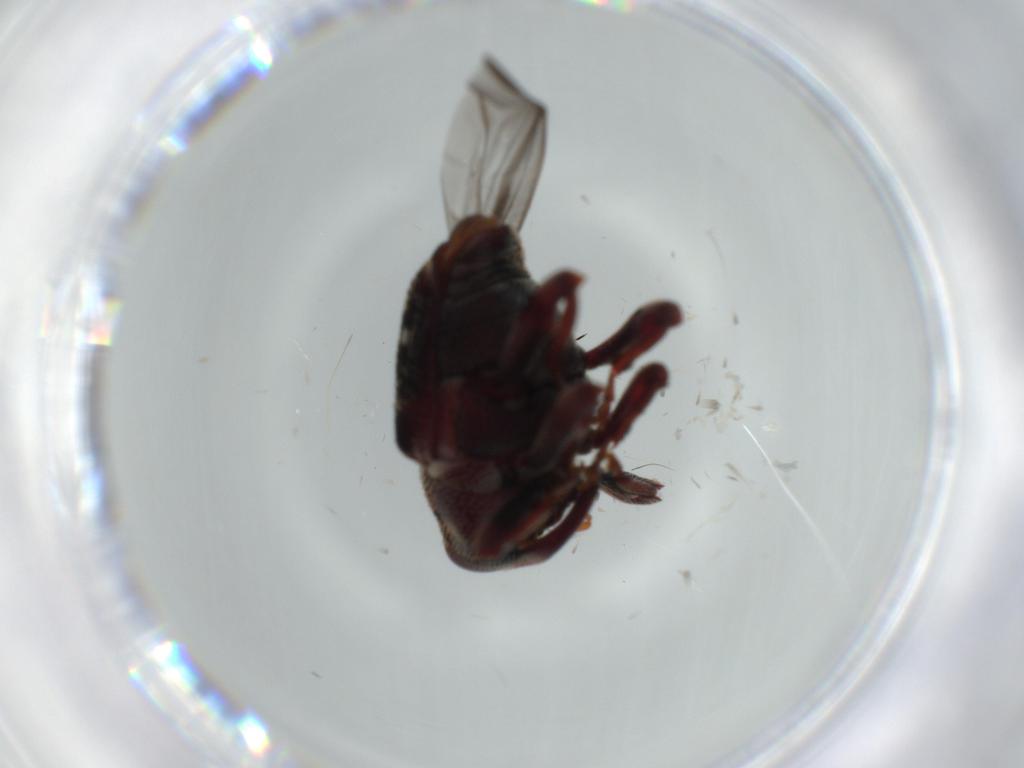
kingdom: Animalia
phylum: Arthropoda
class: Insecta
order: Coleoptera
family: Curculionidae
